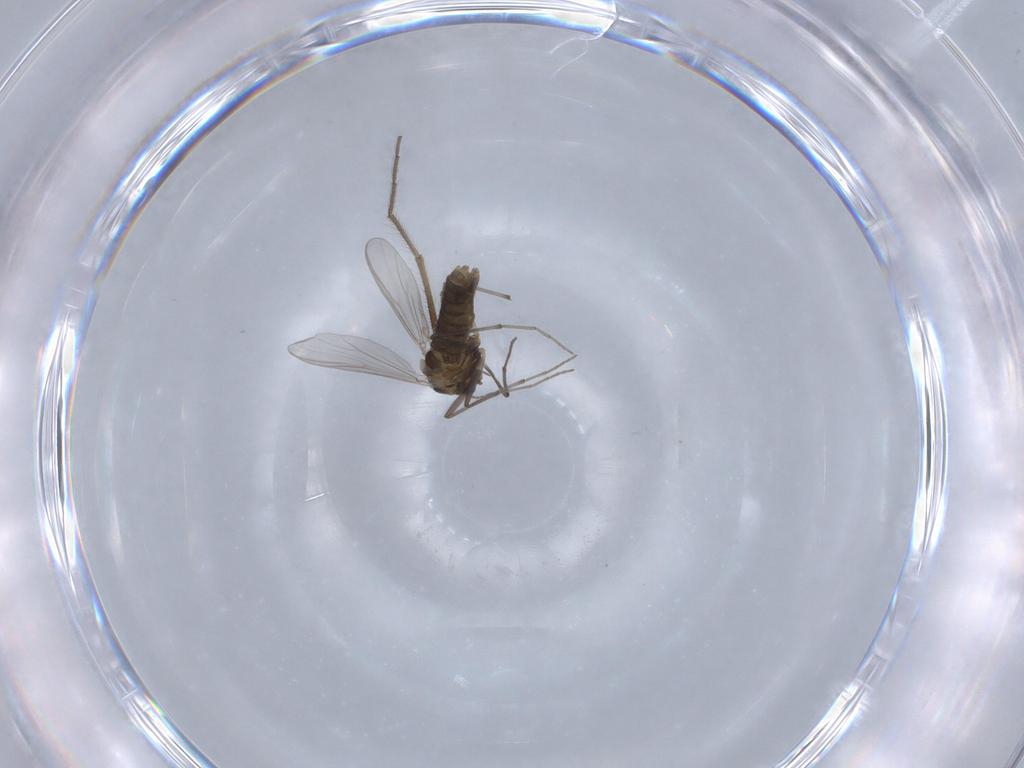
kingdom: Animalia
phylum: Arthropoda
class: Insecta
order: Diptera
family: Chironomidae
